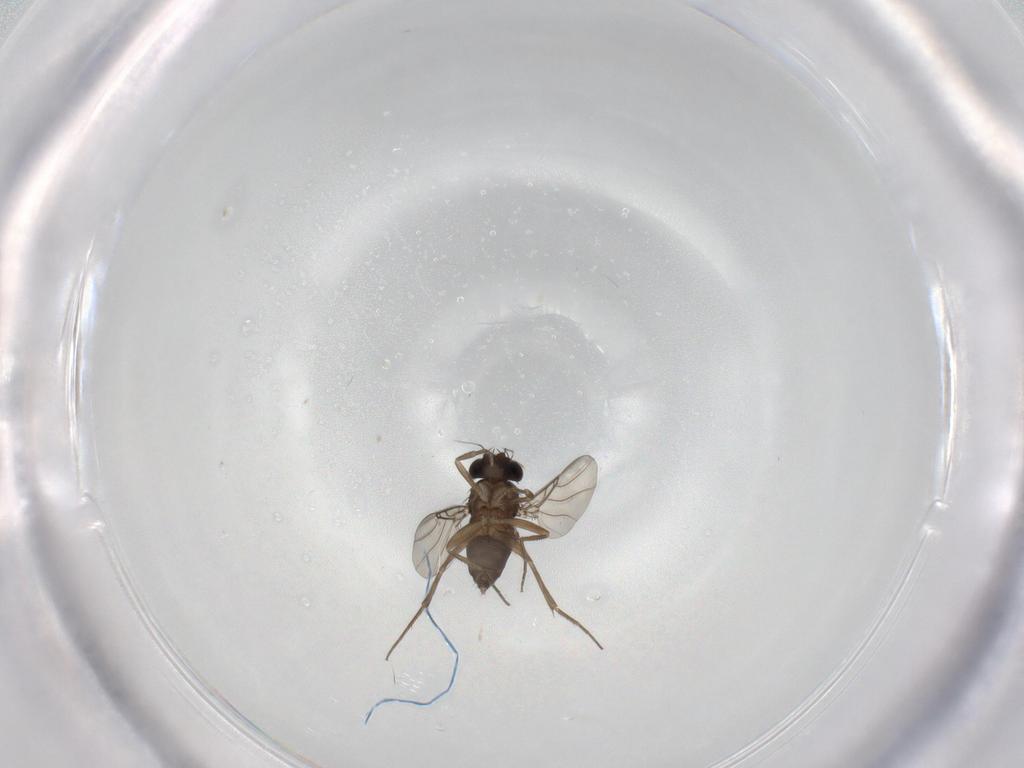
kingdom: Animalia
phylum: Arthropoda
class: Insecta
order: Diptera
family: Phoridae
